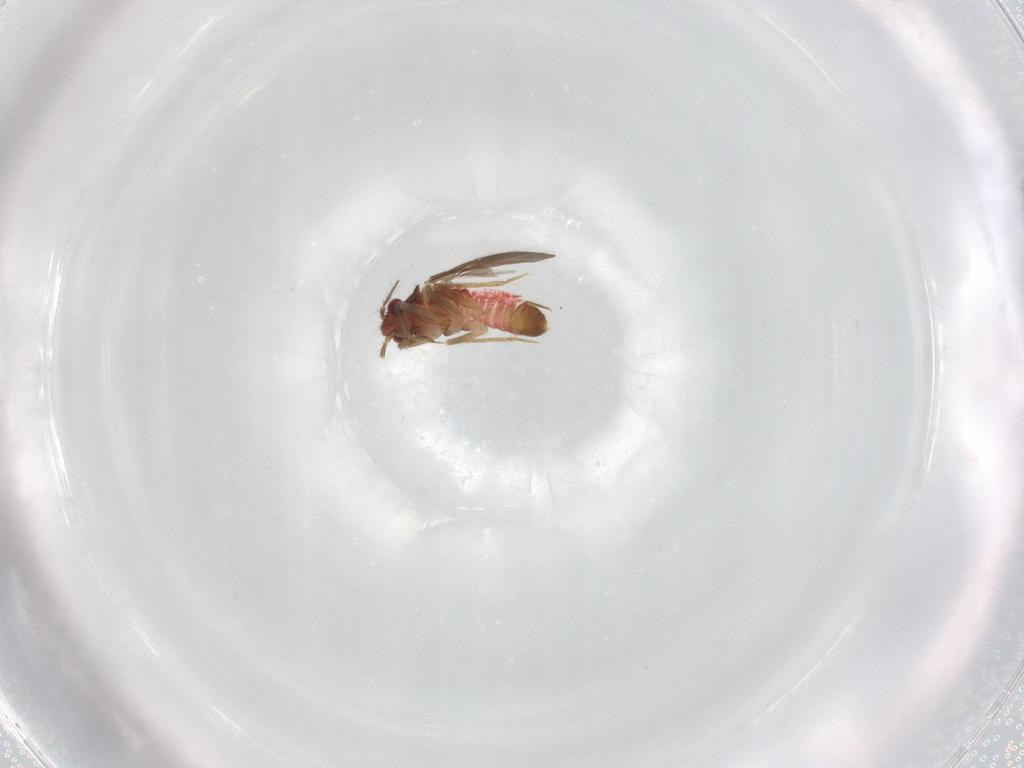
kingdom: Animalia
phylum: Arthropoda
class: Insecta
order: Hemiptera
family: Ceratocombidae
